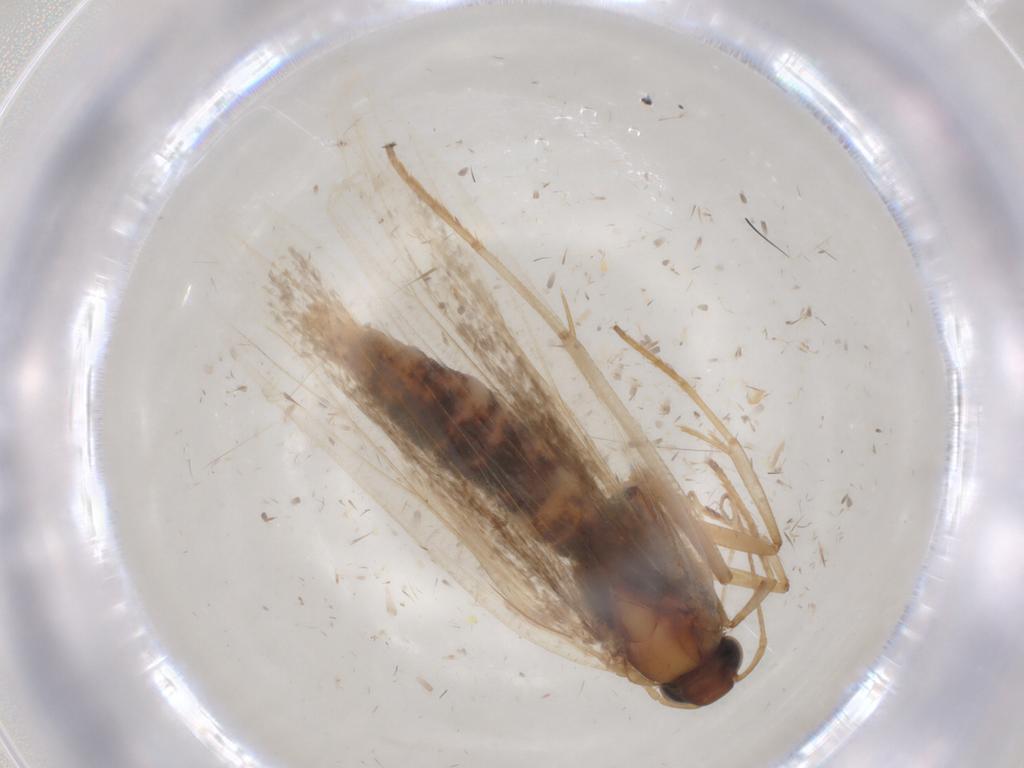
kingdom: Animalia
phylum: Arthropoda
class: Insecta
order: Lepidoptera
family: Gelechiidae
